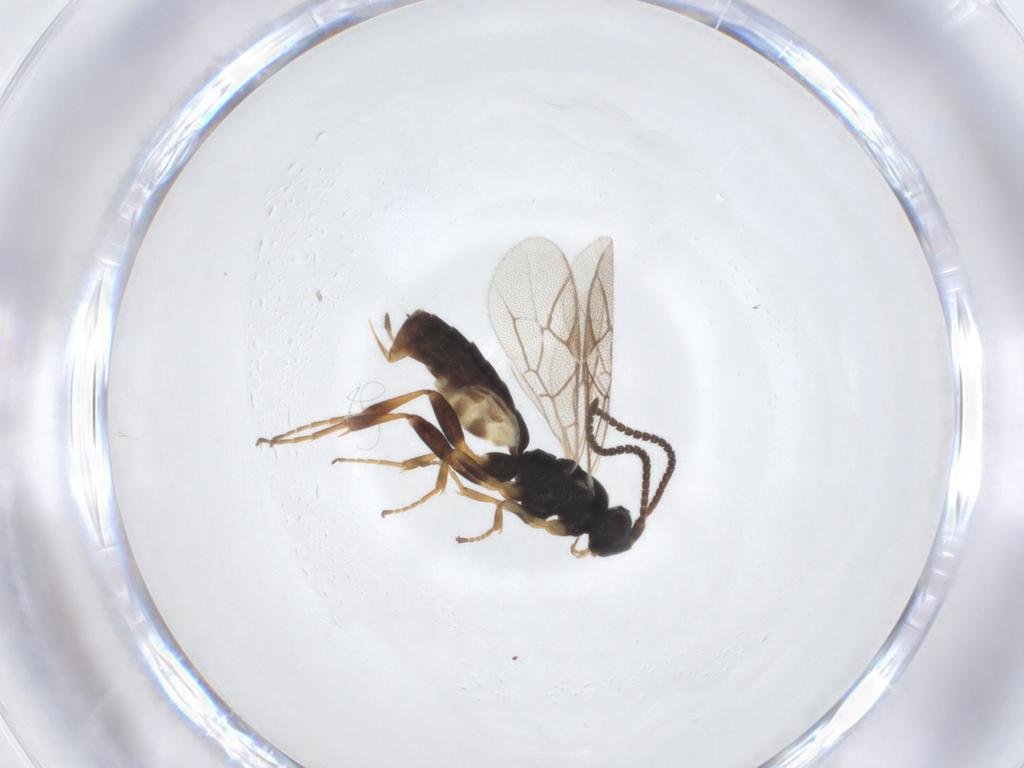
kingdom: Animalia
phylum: Arthropoda
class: Insecta
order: Hymenoptera
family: Ichneumonidae
